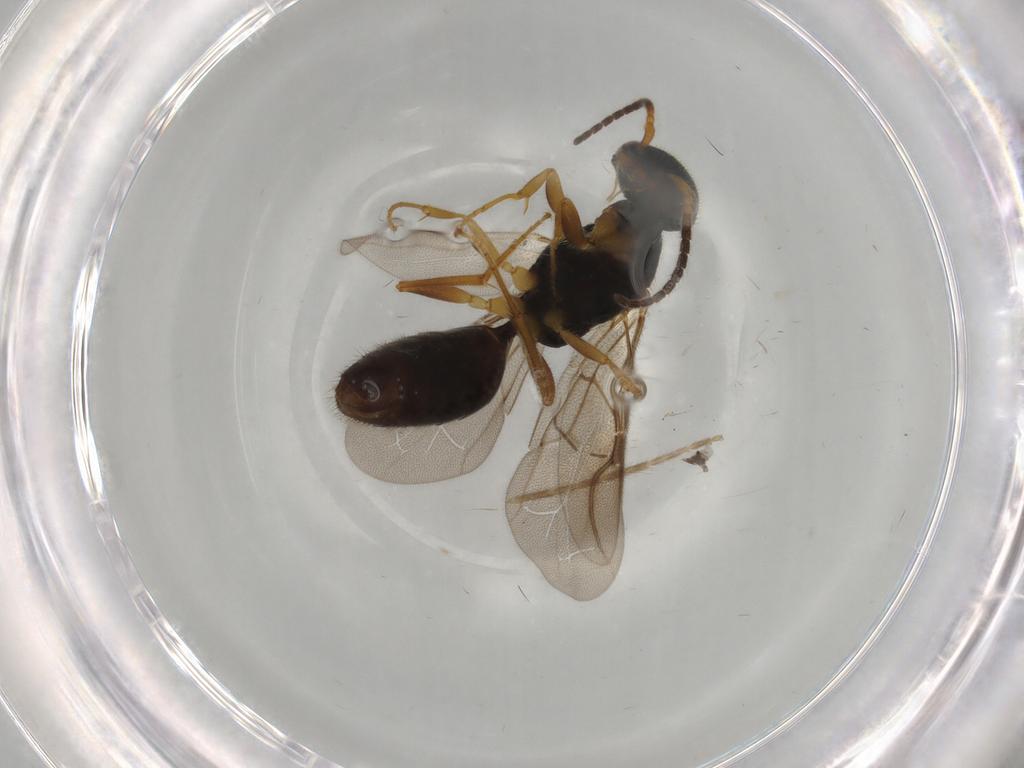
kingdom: Animalia
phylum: Arthropoda
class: Insecta
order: Hymenoptera
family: Bethylidae
